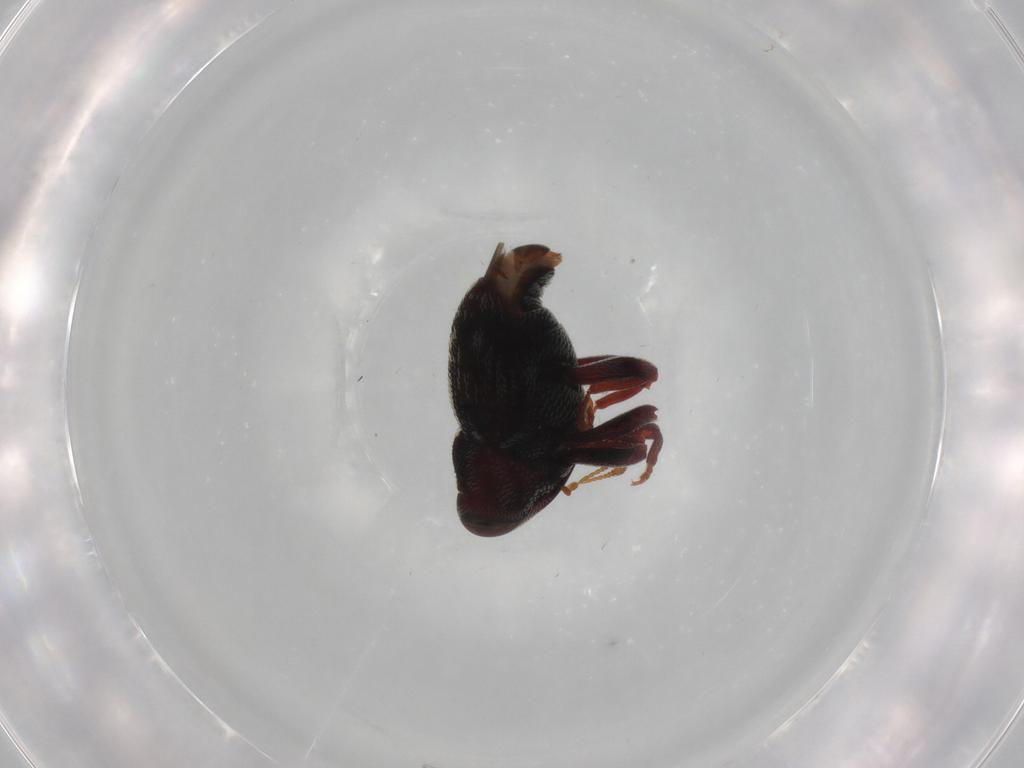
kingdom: Animalia
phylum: Arthropoda
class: Insecta
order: Coleoptera
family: Curculionidae
